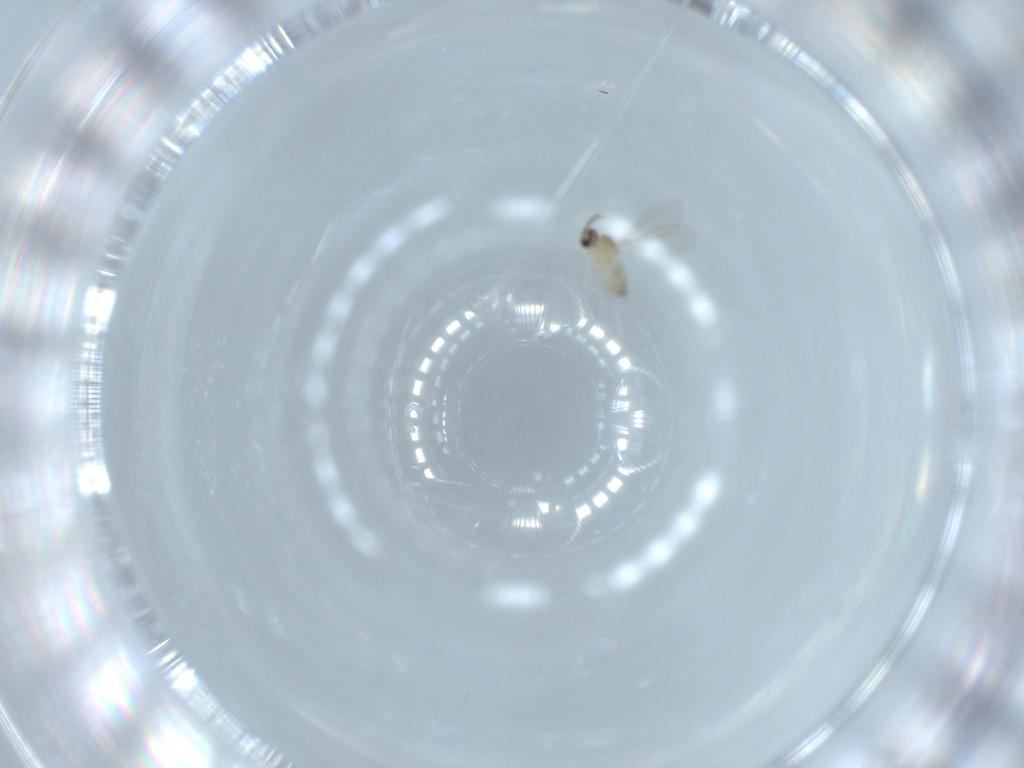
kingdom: Animalia
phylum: Arthropoda
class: Insecta
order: Diptera
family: Cecidomyiidae
